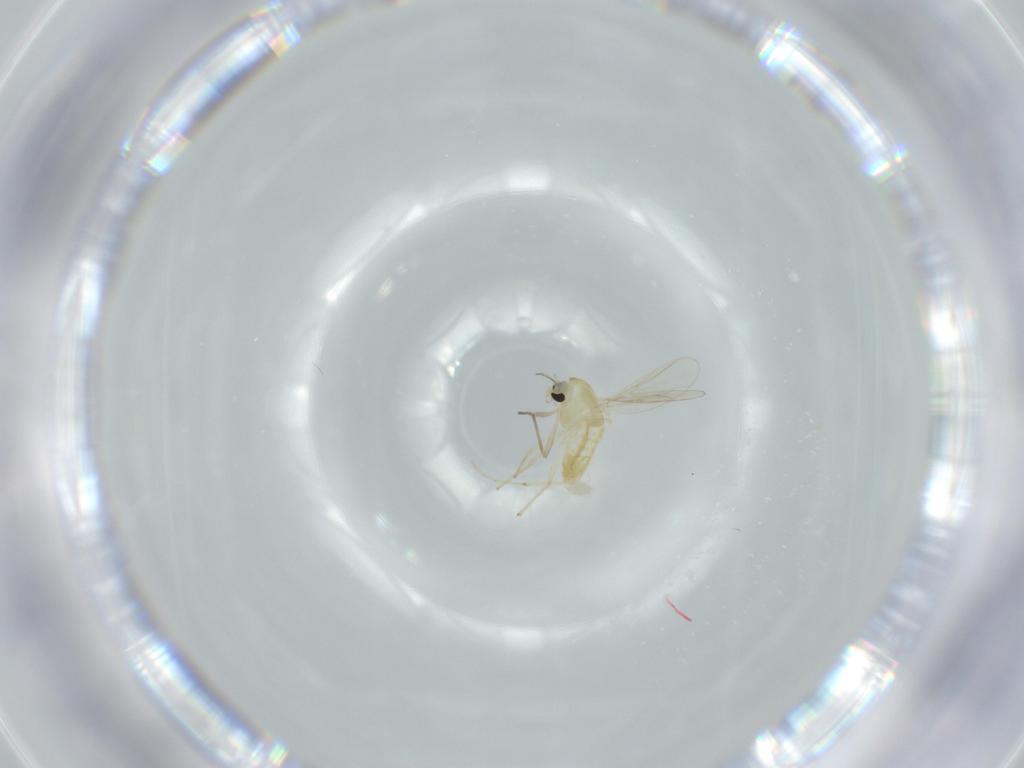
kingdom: Animalia
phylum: Arthropoda
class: Insecta
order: Diptera
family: Chironomidae
